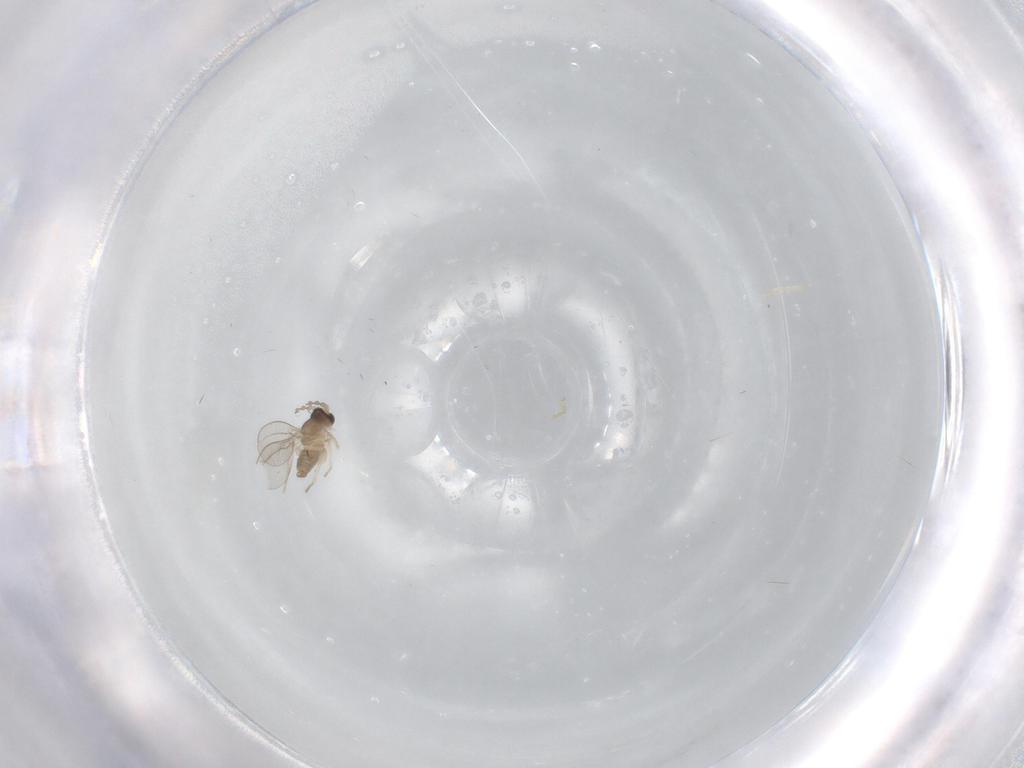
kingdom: Animalia
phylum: Arthropoda
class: Insecta
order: Diptera
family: Cecidomyiidae
